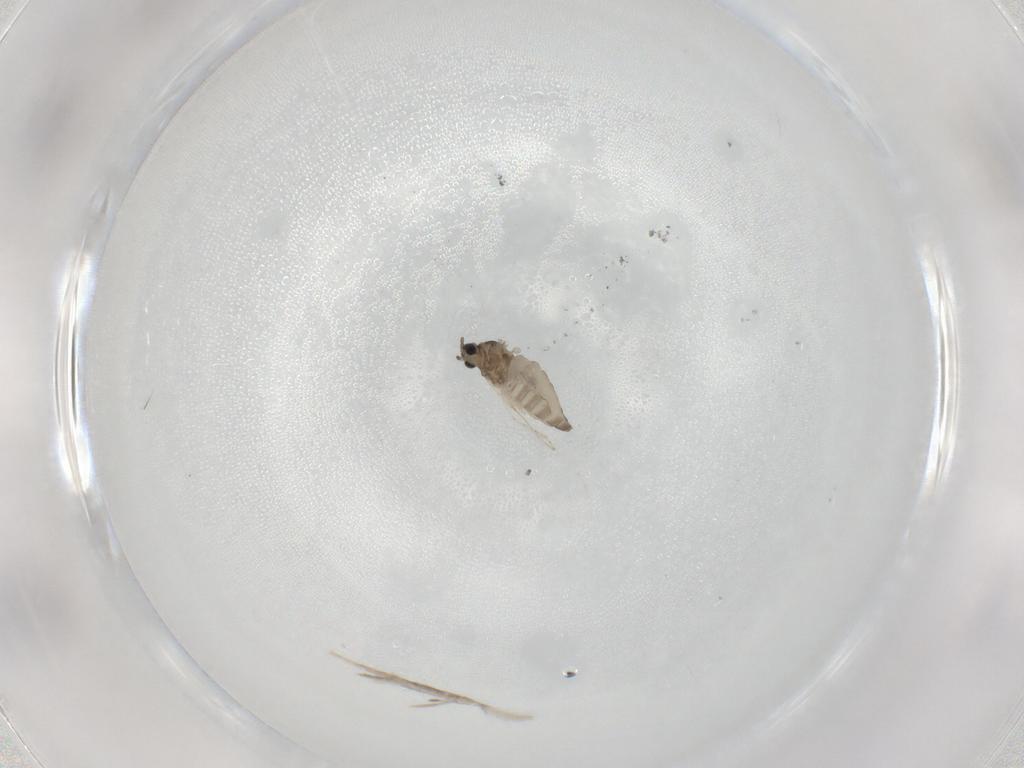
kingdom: Animalia
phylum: Arthropoda
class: Insecta
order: Diptera
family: Cecidomyiidae
